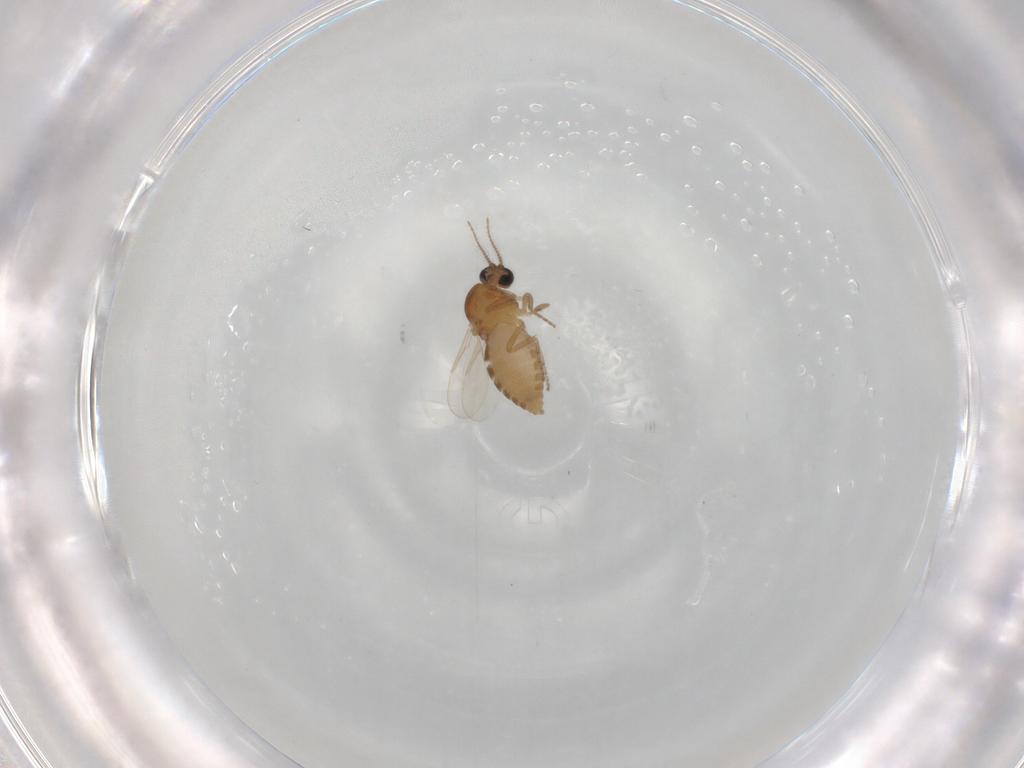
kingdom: Animalia
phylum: Arthropoda
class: Insecta
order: Diptera
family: Ceratopogonidae
